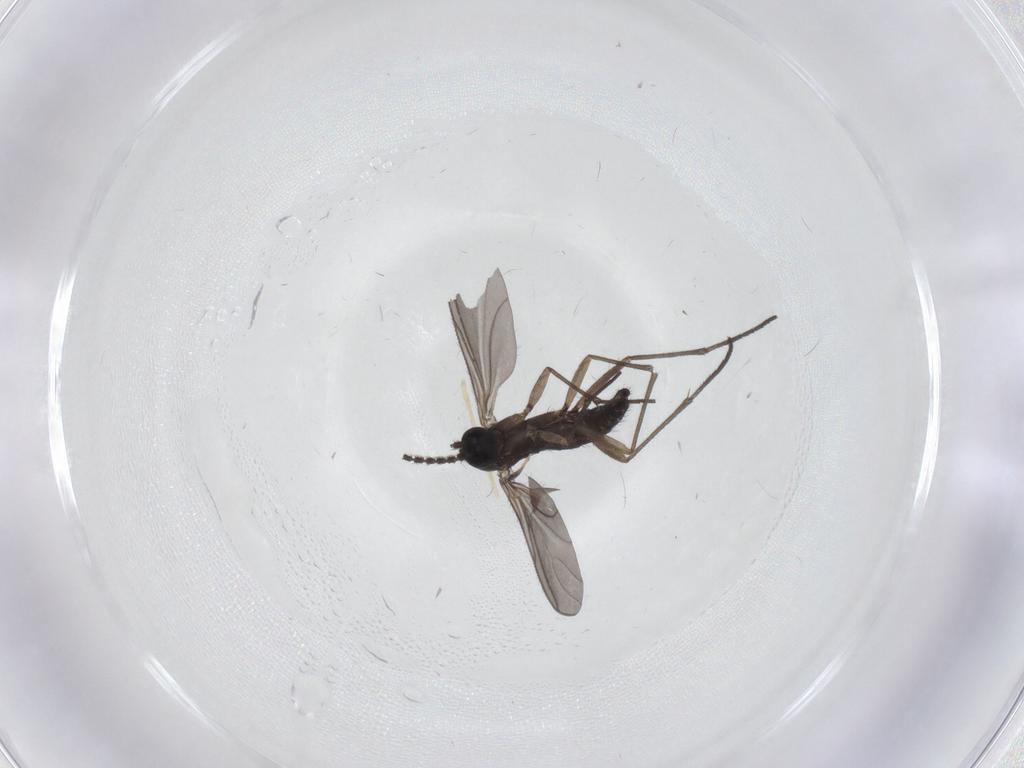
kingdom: Animalia
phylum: Arthropoda
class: Insecta
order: Diptera
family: Sciaridae
